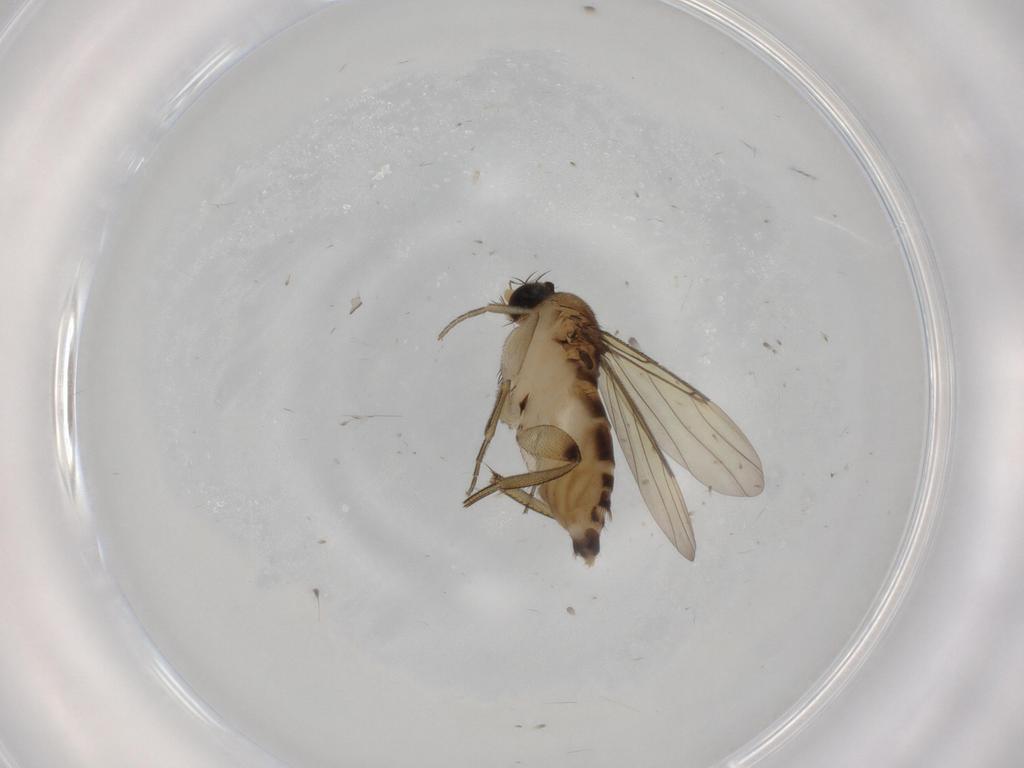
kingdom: Animalia
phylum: Arthropoda
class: Insecta
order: Diptera
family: Phoridae
